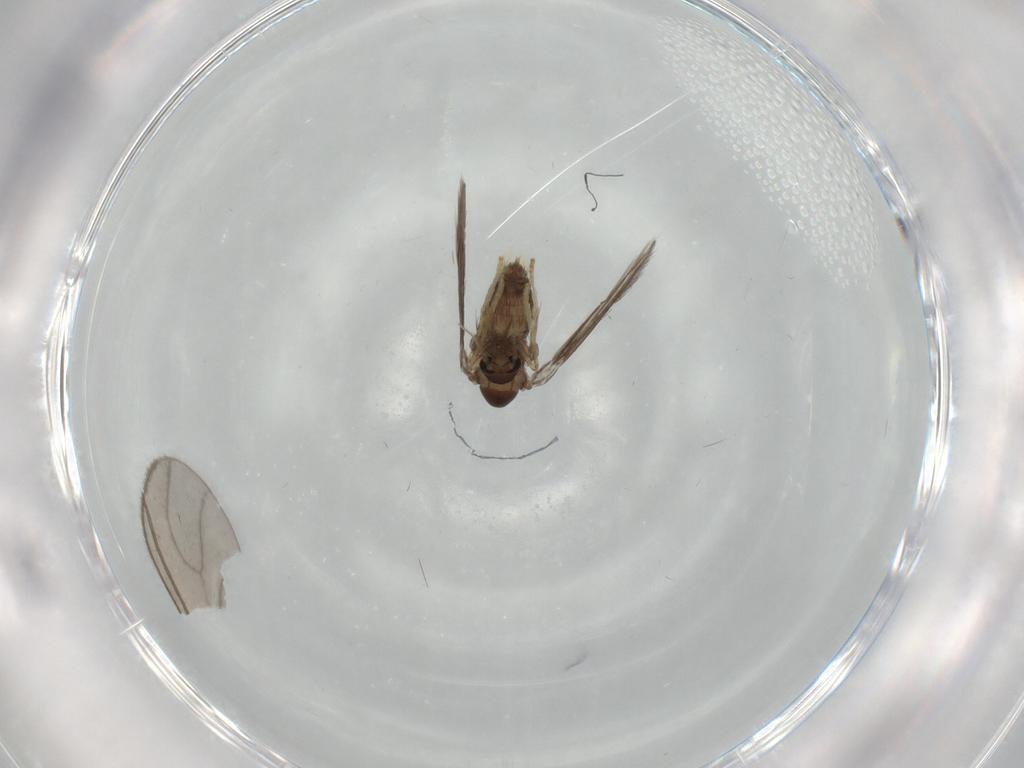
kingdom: Animalia
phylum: Arthropoda
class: Insecta
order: Diptera
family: Psychodidae
